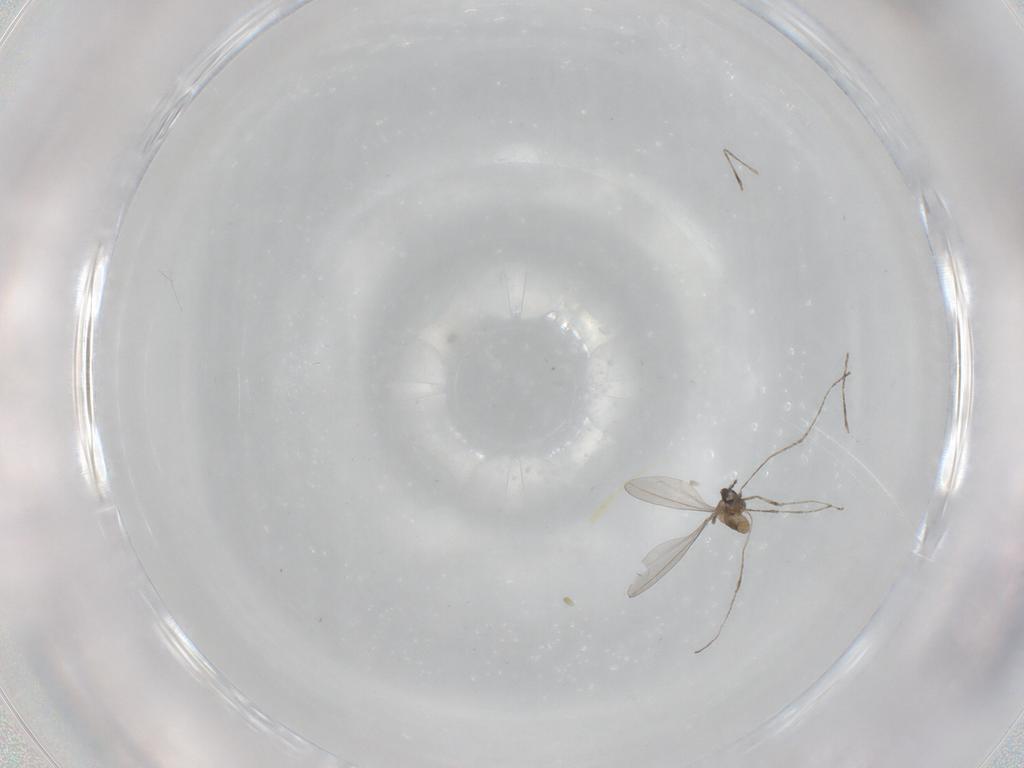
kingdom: Animalia
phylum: Arthropoda
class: Insecta
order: Diptera
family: Cecidomyiidae
